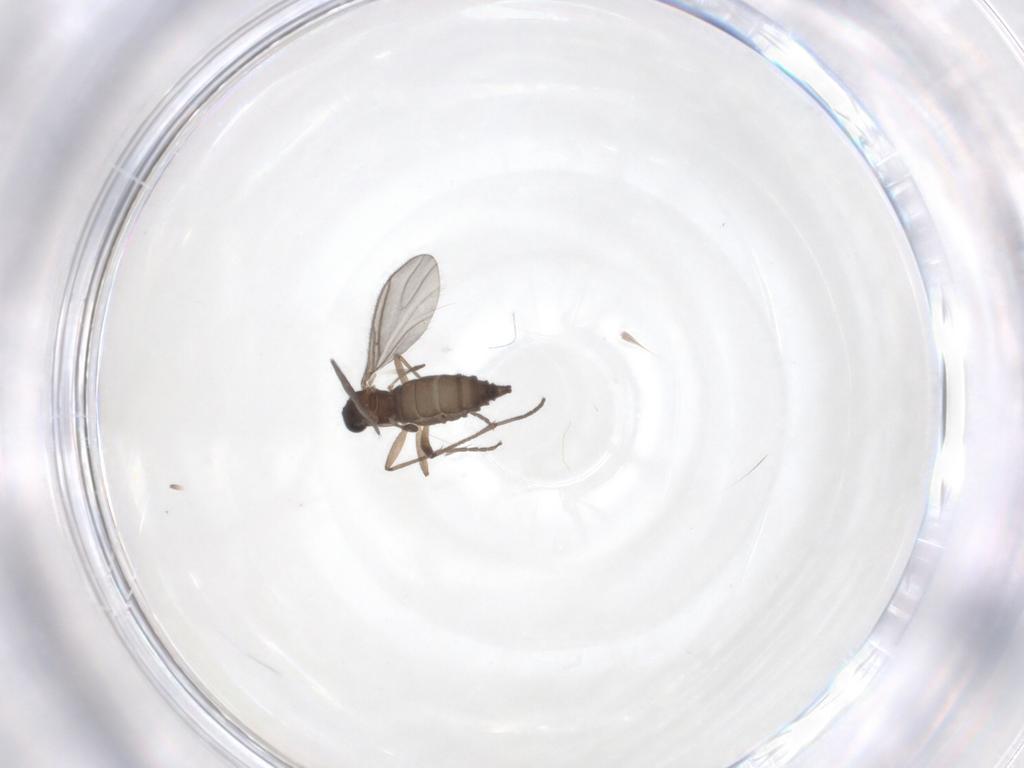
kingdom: Animalia
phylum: Arthropoda
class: Insecta
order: Diptera
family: Sciaridae
